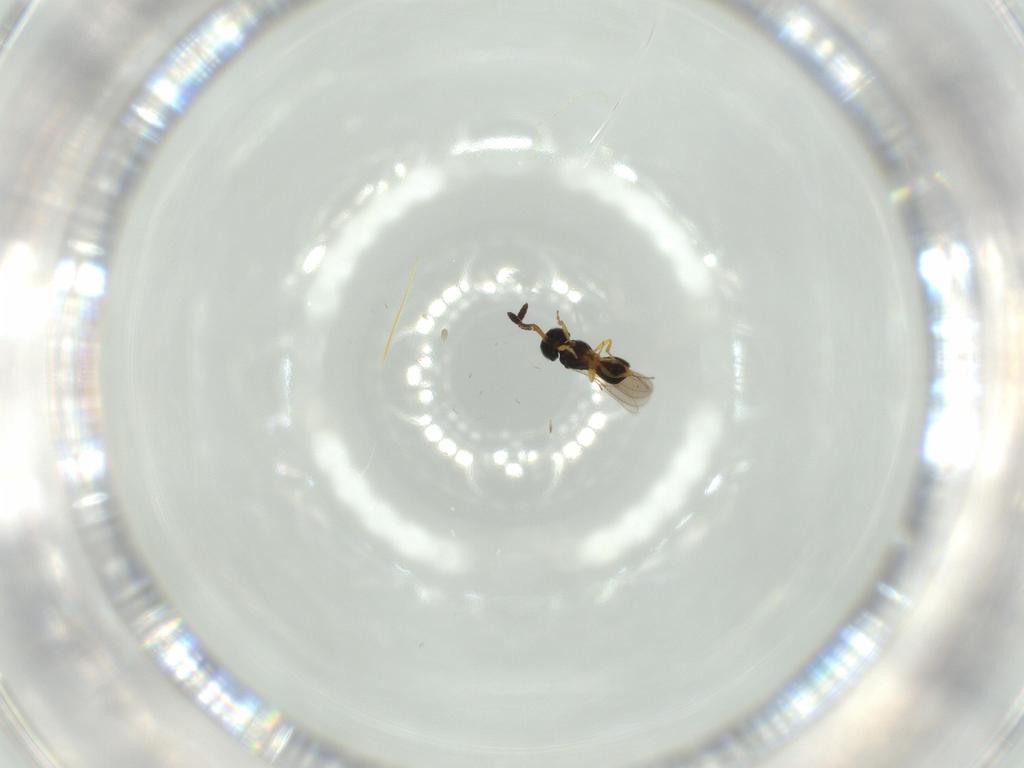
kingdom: Animalia
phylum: Arthropoda
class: Insecta
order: Hymenoptera
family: Scelionidae
